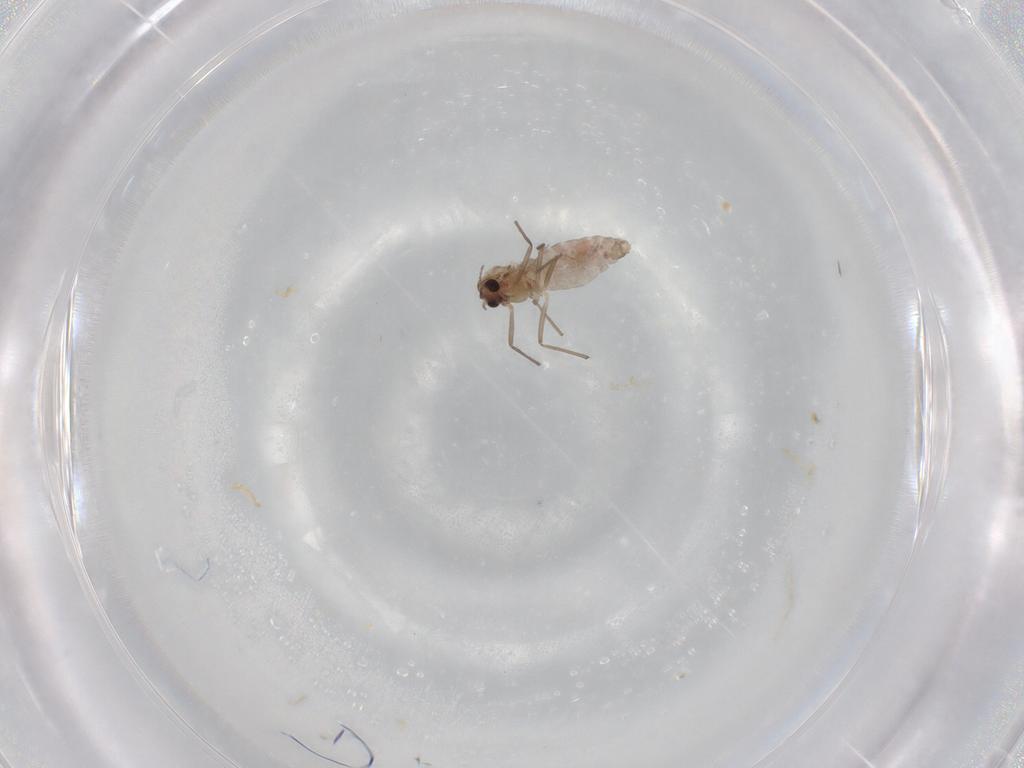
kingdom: Animalia
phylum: Arthropoda
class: Insecta
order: Diptera
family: Chironomidae
